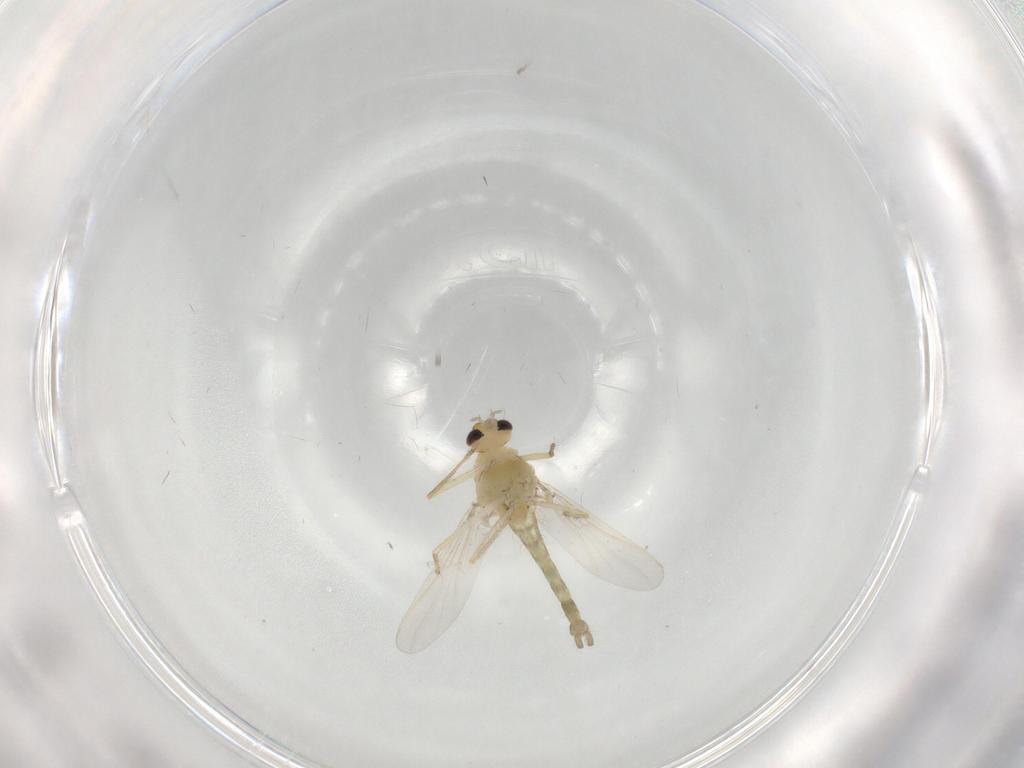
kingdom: Animalia
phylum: Arthropoda
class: Insecta
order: Diptera
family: Chironomidae
